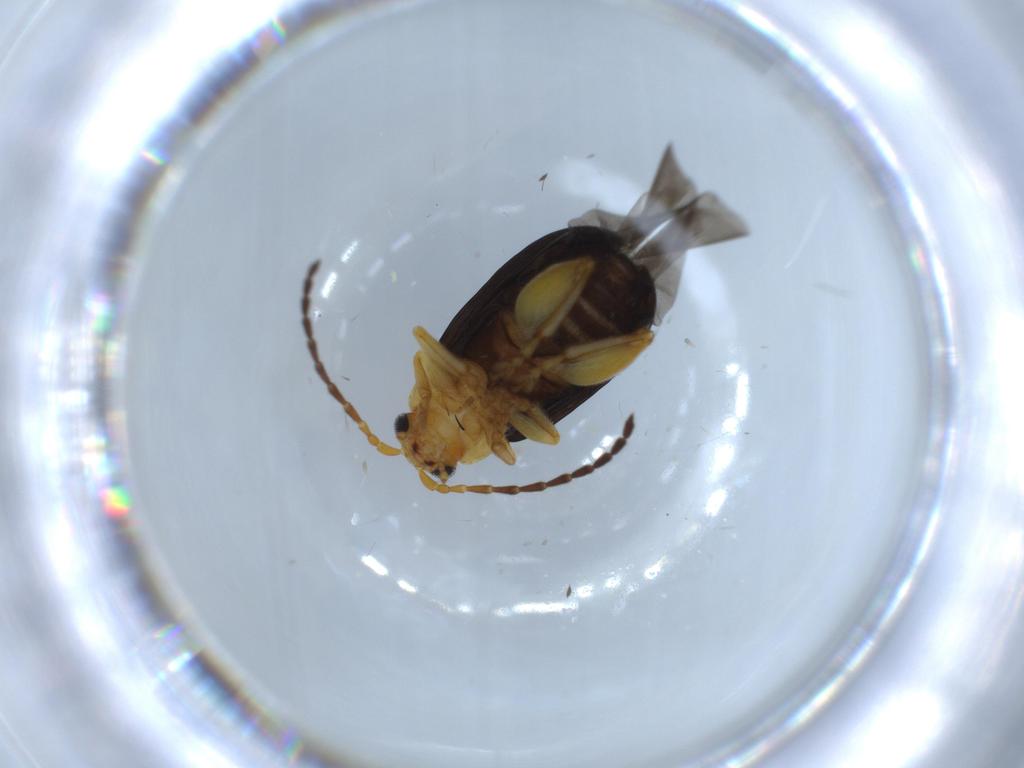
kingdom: Animalia
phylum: Arthropoda
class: Insecta
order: Coleoptera
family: Chrysomelidae
